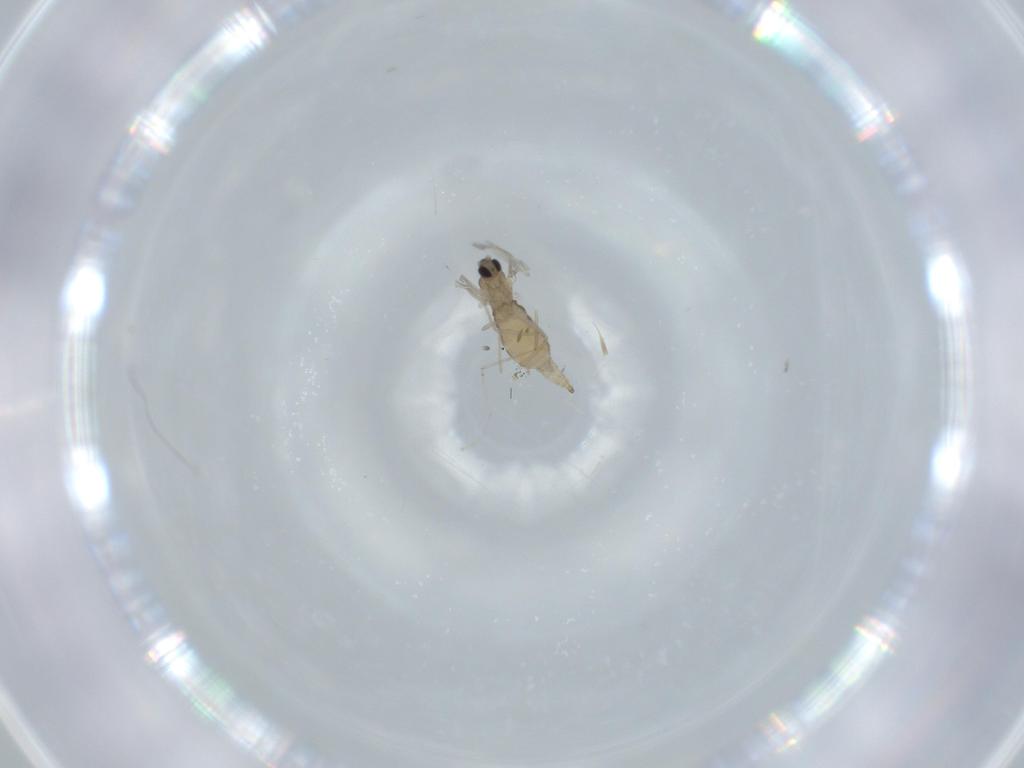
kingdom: Animalia
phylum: Arthropoda
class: Insecta
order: Diptera
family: Cecidomyiidae
